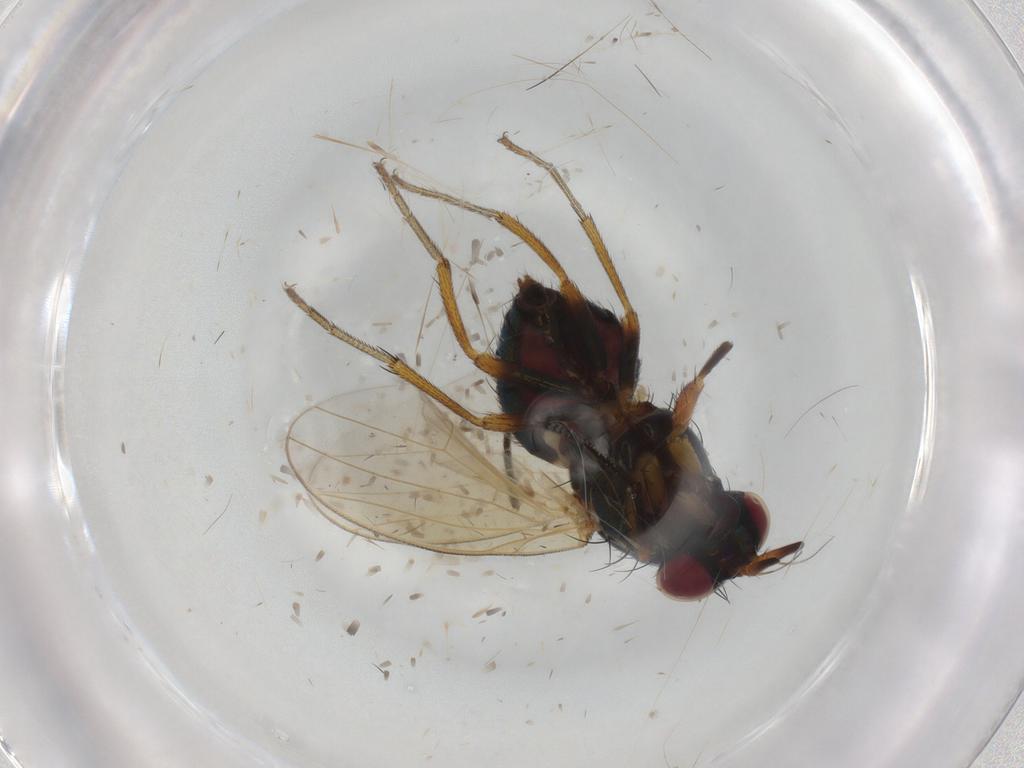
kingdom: Animalia
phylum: Arthropoda
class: Insecta
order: Diptera
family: Lauxaniidae
